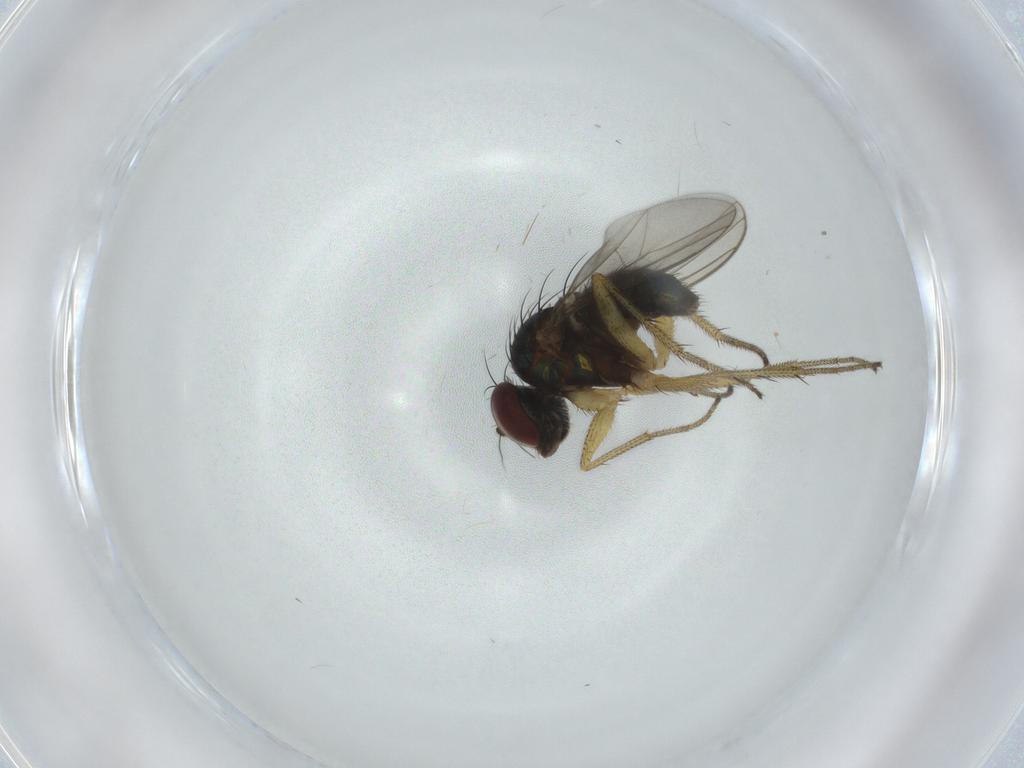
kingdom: Animalia
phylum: Arthropoda
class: Insecta
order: Diptera
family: Dolichopodidae
